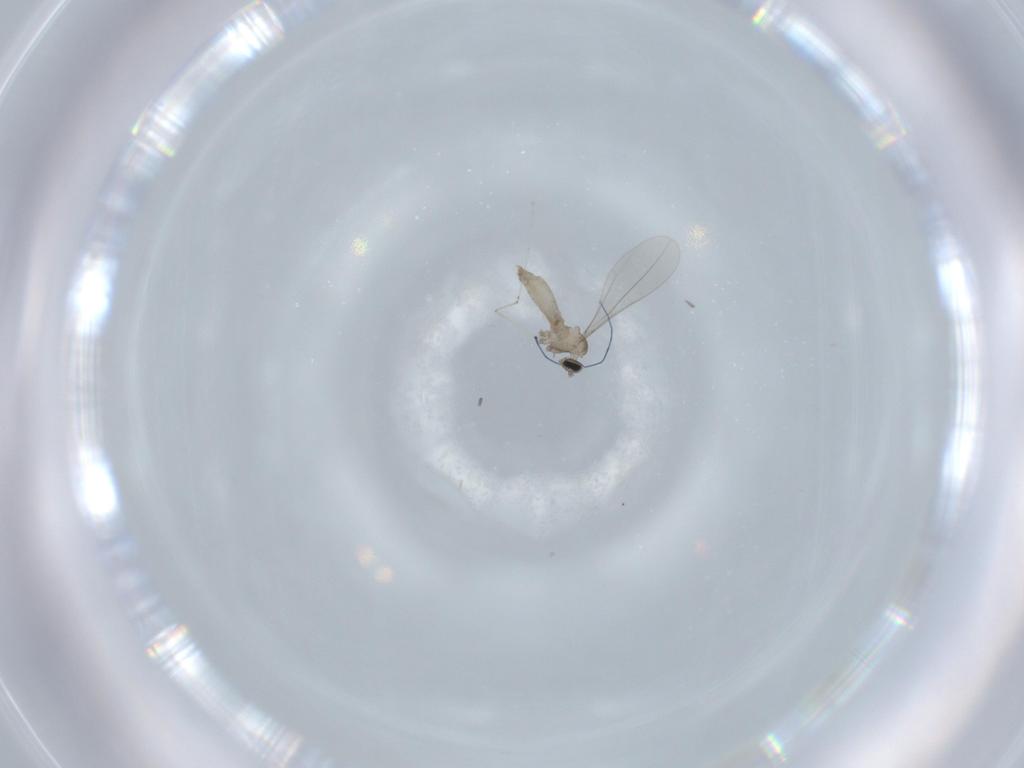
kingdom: Animalia
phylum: Arthropoda
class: Insecta
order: Diptera
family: Cecidomyiidae
